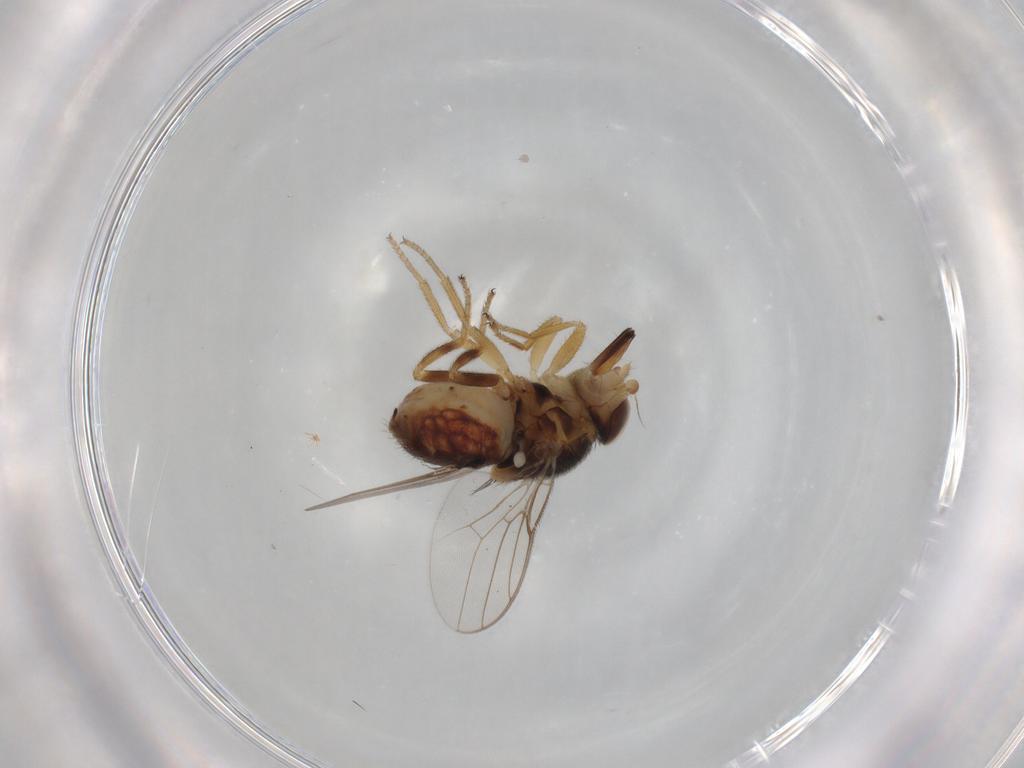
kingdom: Animalia
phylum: Arthropoda
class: Insecta
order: Diptera
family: Chloropidae
